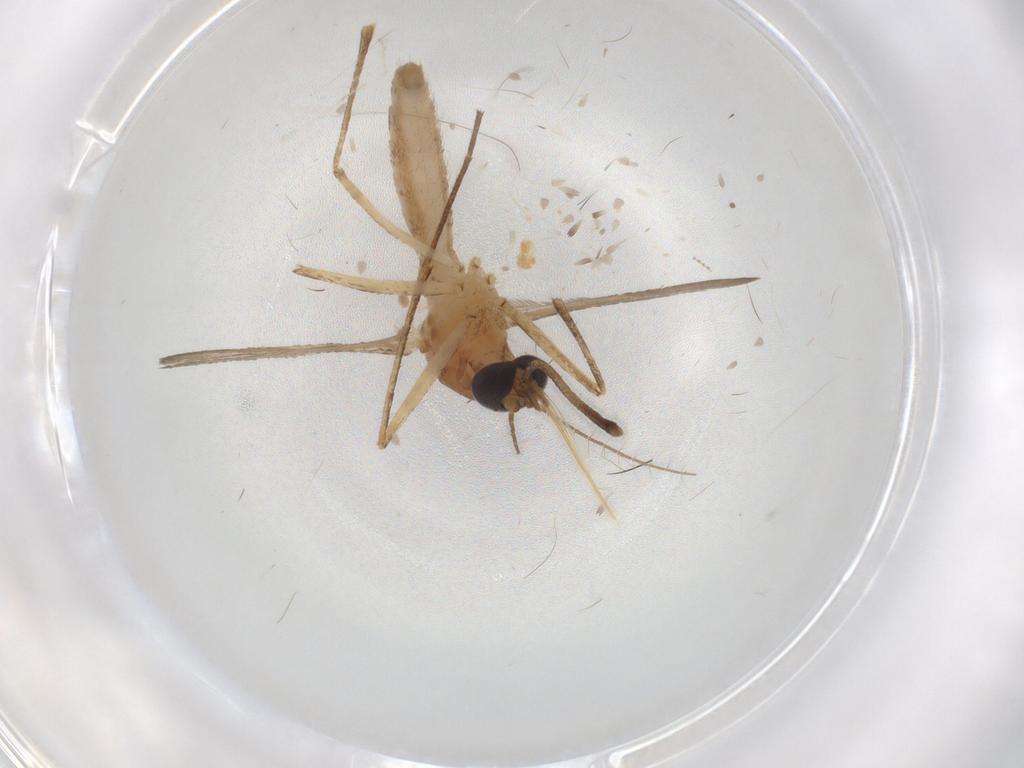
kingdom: Animalia
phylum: Arthropoda
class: Insecta
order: Diptera
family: Ceratopogonidae
